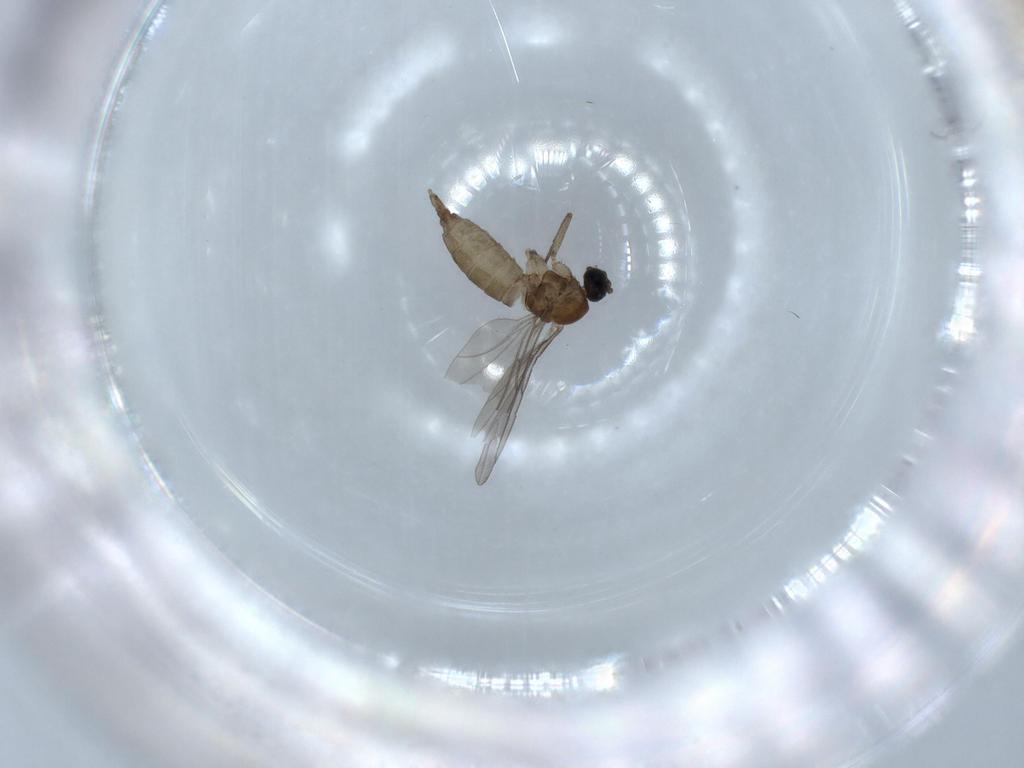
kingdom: Animalia
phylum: Arthropoda
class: Insecta
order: Diptera
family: Sciaridae
